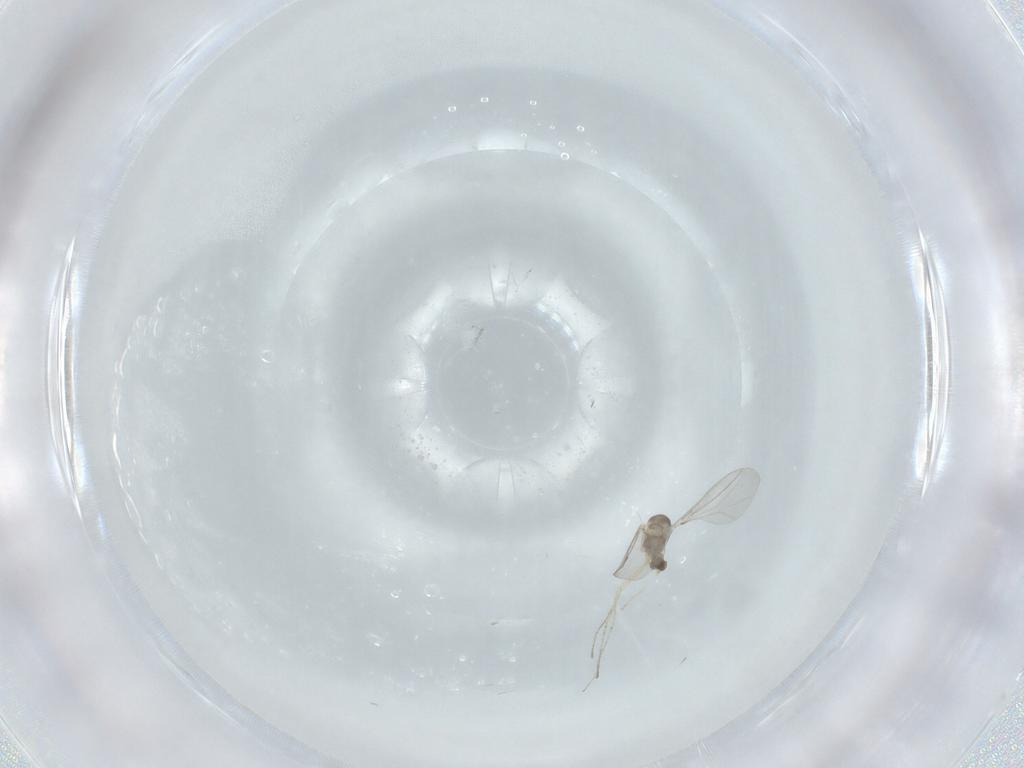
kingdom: Animalia
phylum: Arthropoda
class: Insecta
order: Diptera
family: Cecidomyiidae
